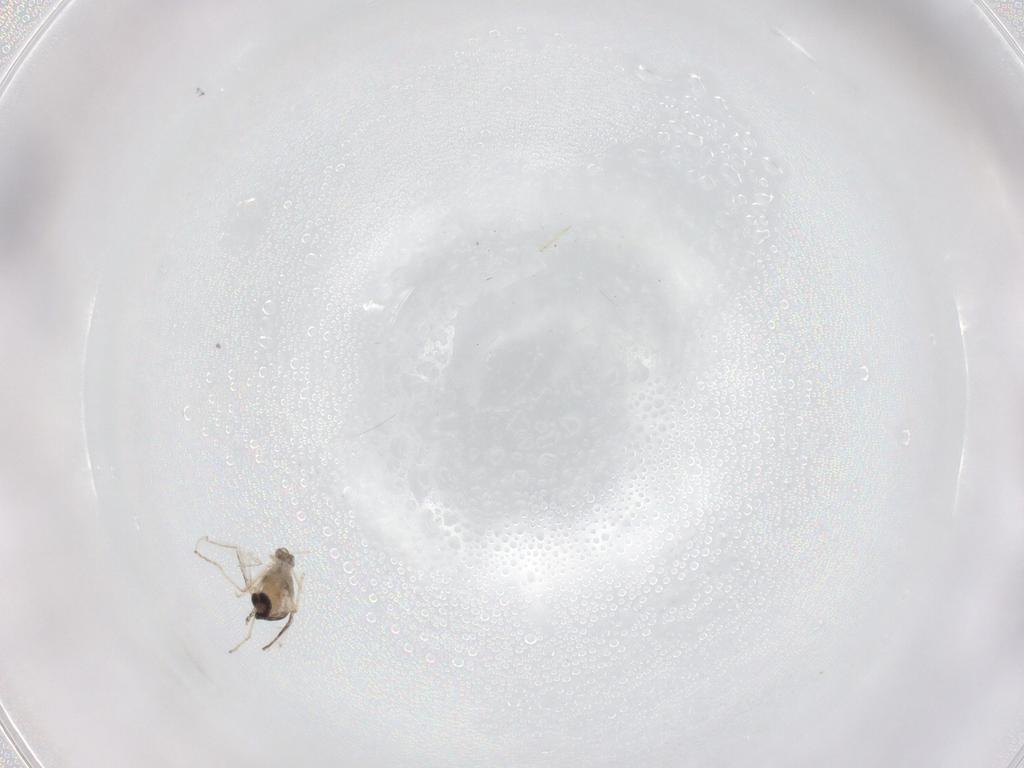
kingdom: Animalia
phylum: Arthropoda
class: Insecta
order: Diptera
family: Cecidomyiidae
